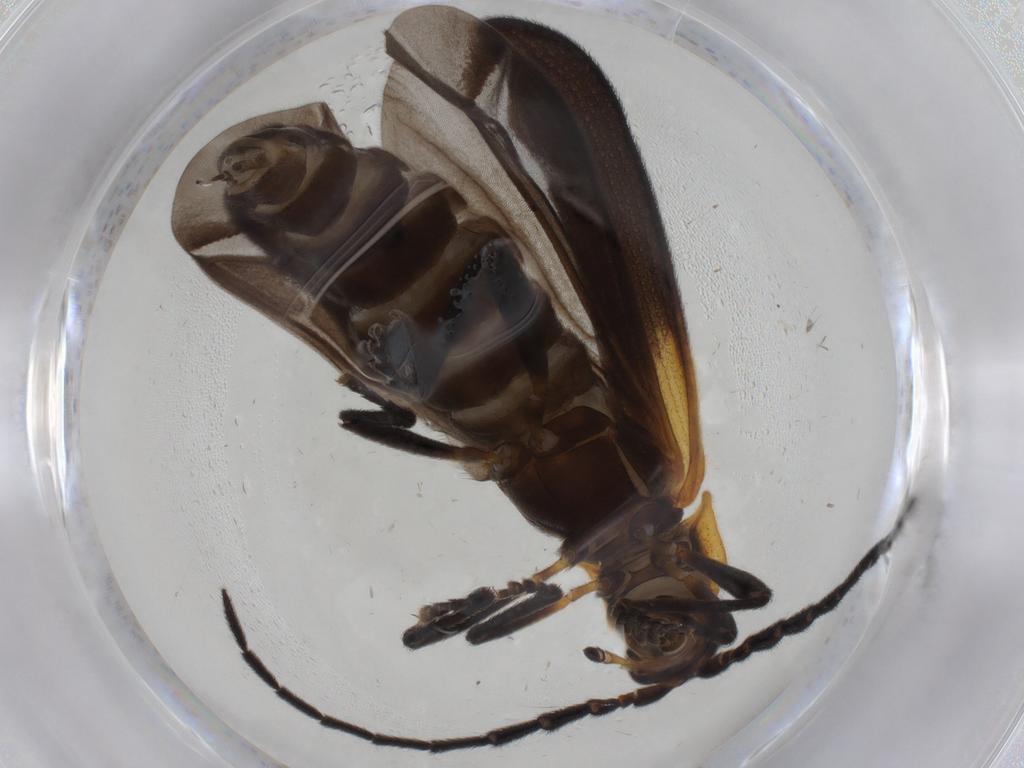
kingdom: Animalia
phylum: Arthropoda
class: Insecta
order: Coleoptera
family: Lycidae
